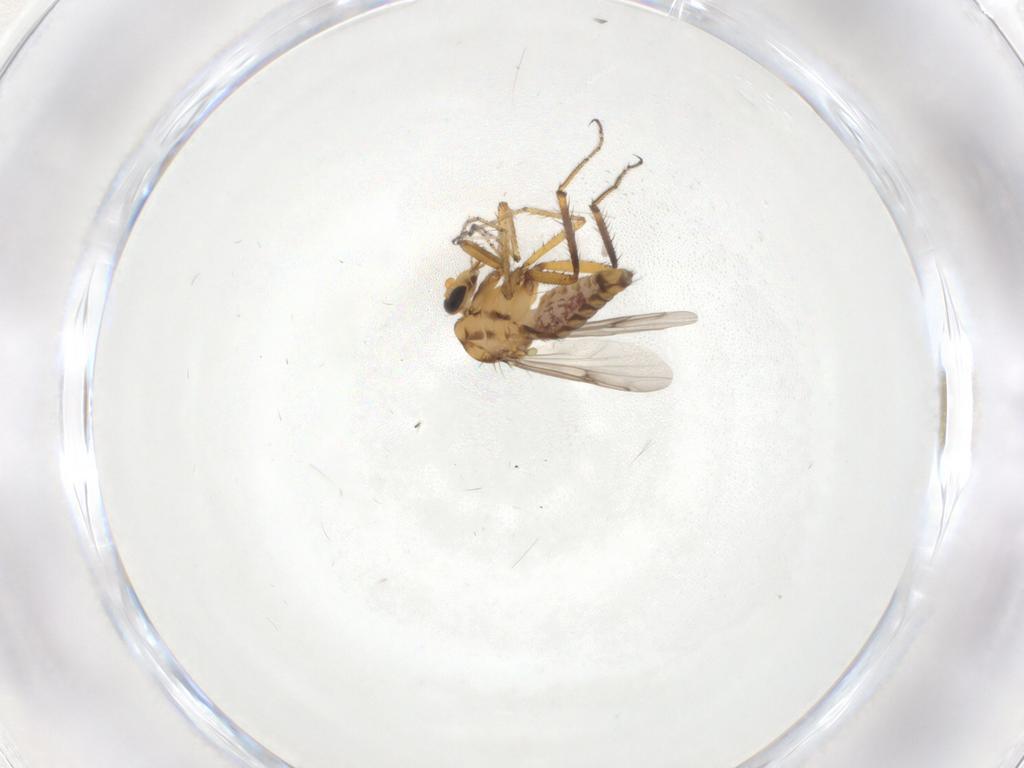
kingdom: Animalia
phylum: Arthropoda
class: Insecta
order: Diptera
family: Ceratopogonidae
